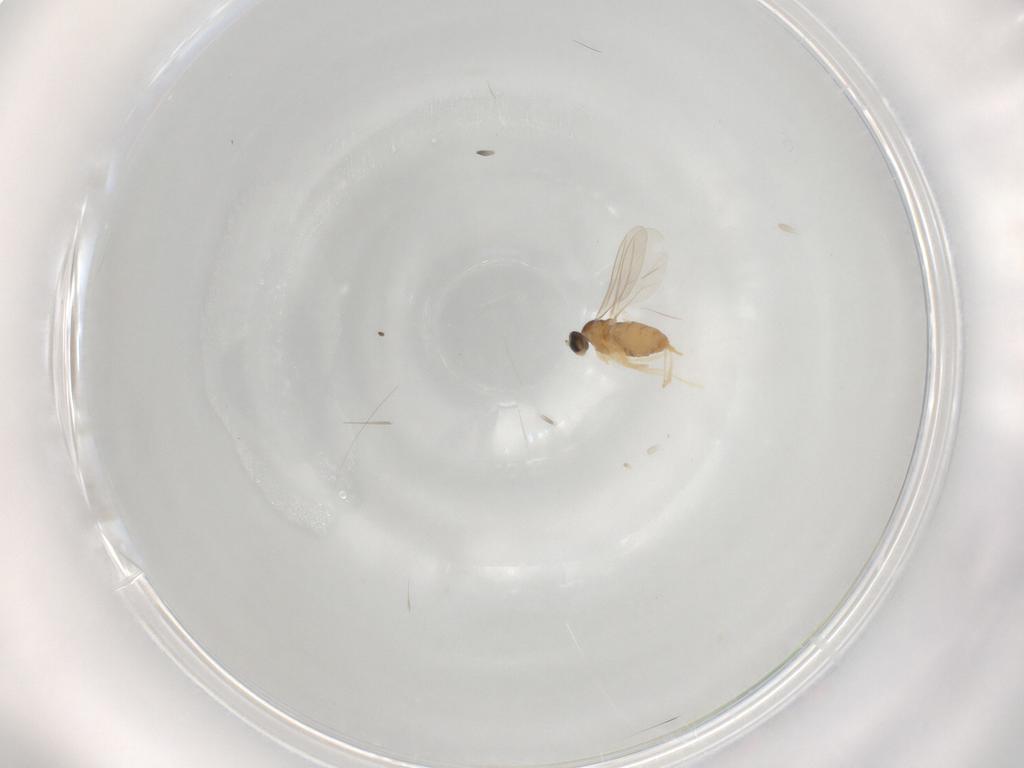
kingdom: Animalia
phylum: Arthropoda
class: Insecta
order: Diptera
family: Cecidomyiidae
